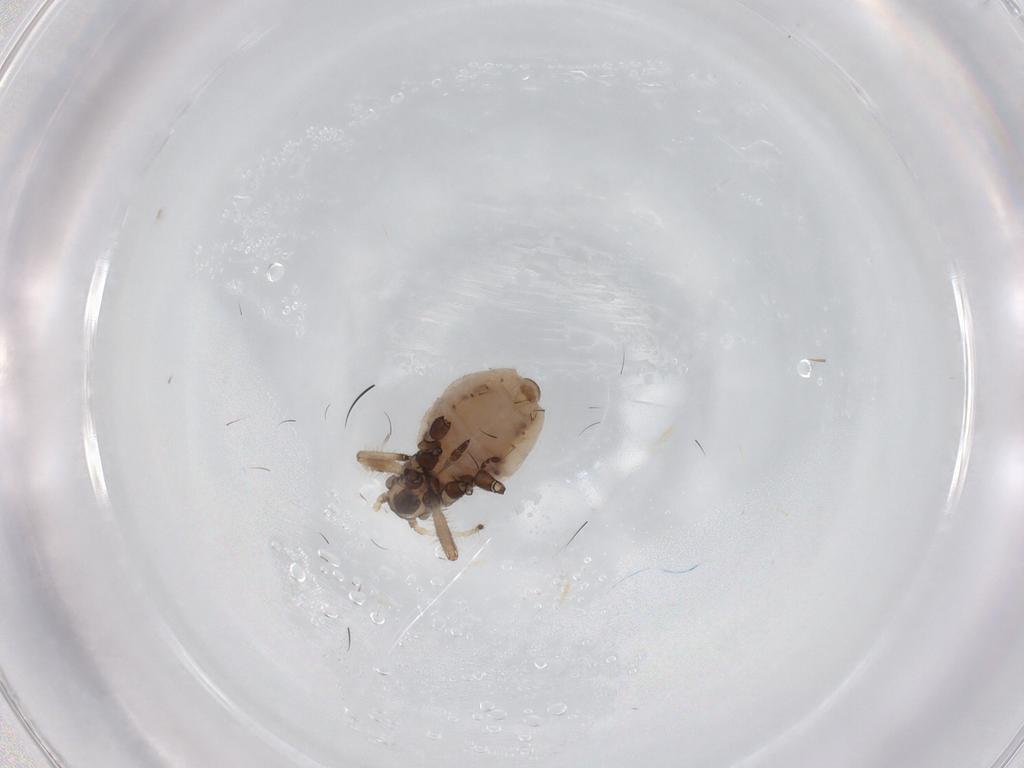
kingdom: Animalia
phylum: Arthropoda
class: Insecta
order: Hemiptera
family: Aphididae
